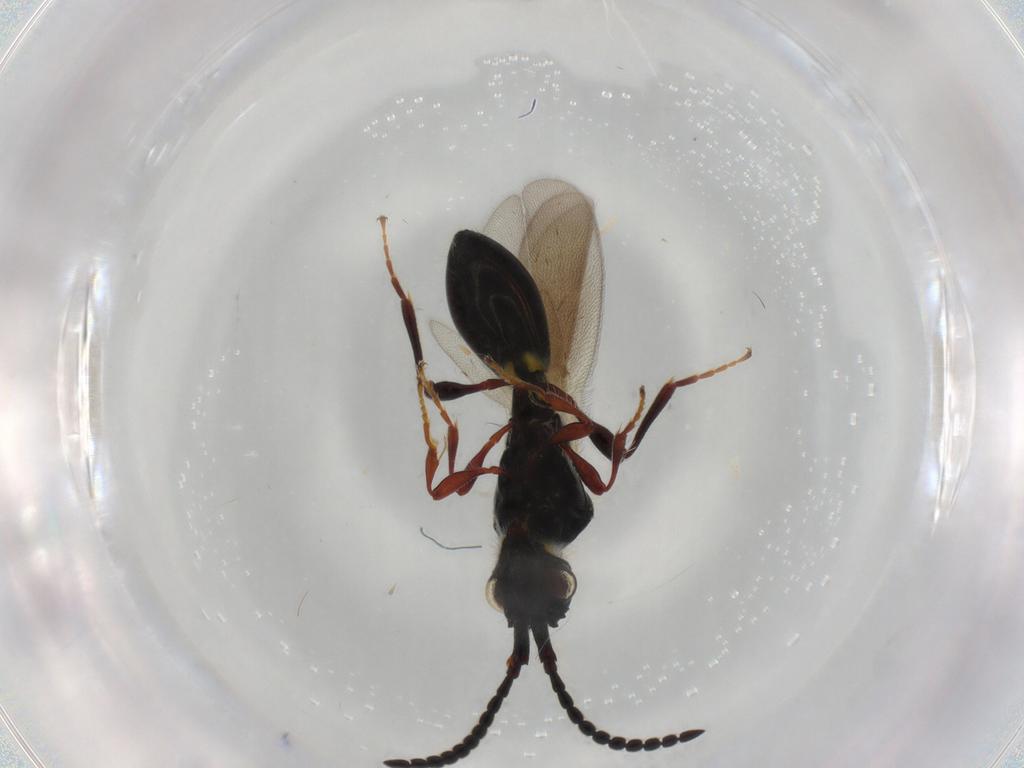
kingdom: Animalia
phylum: Arthropoda
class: Insecta
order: Hymenoptera
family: Diapriidae
